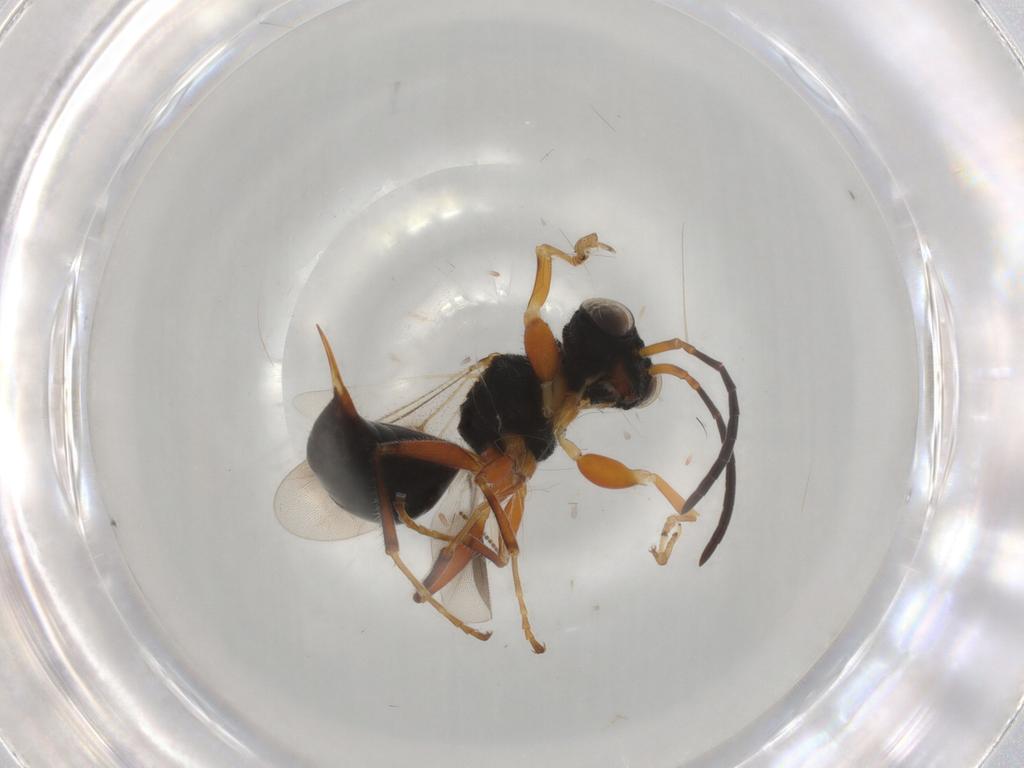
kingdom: Animalia
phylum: Arthropoda
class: Insecta
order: Hymenoptera
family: Dryinidae
